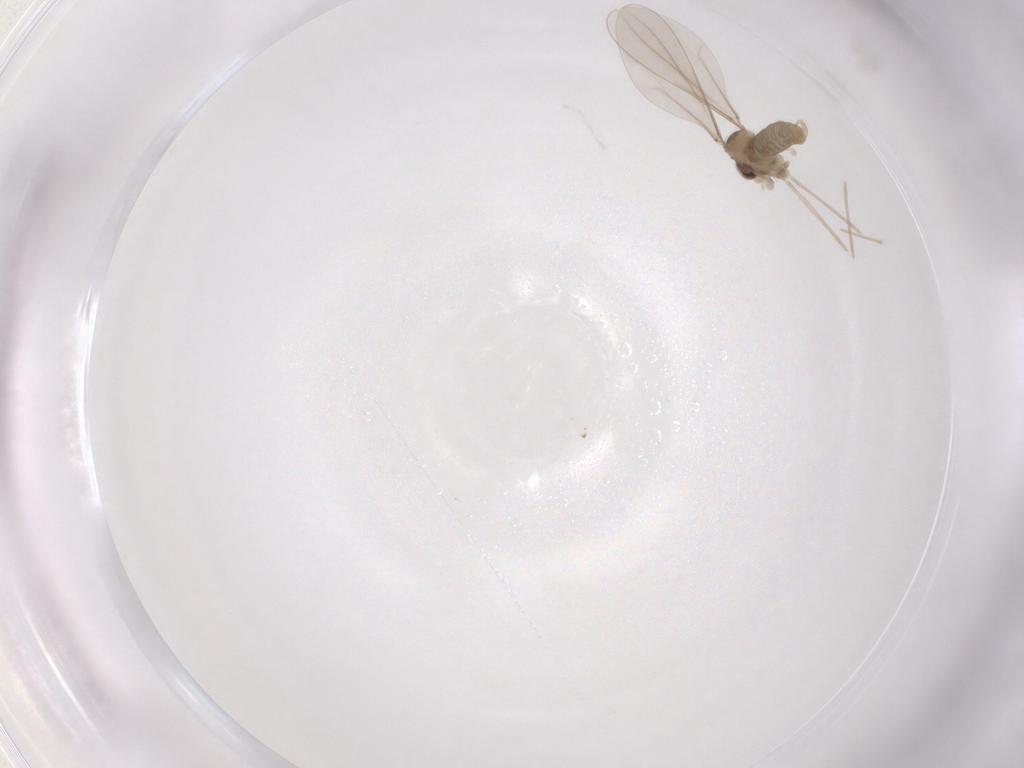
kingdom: Animalia
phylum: Arthropoda
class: Insecta
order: Diptera
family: Cecidomyiidae
